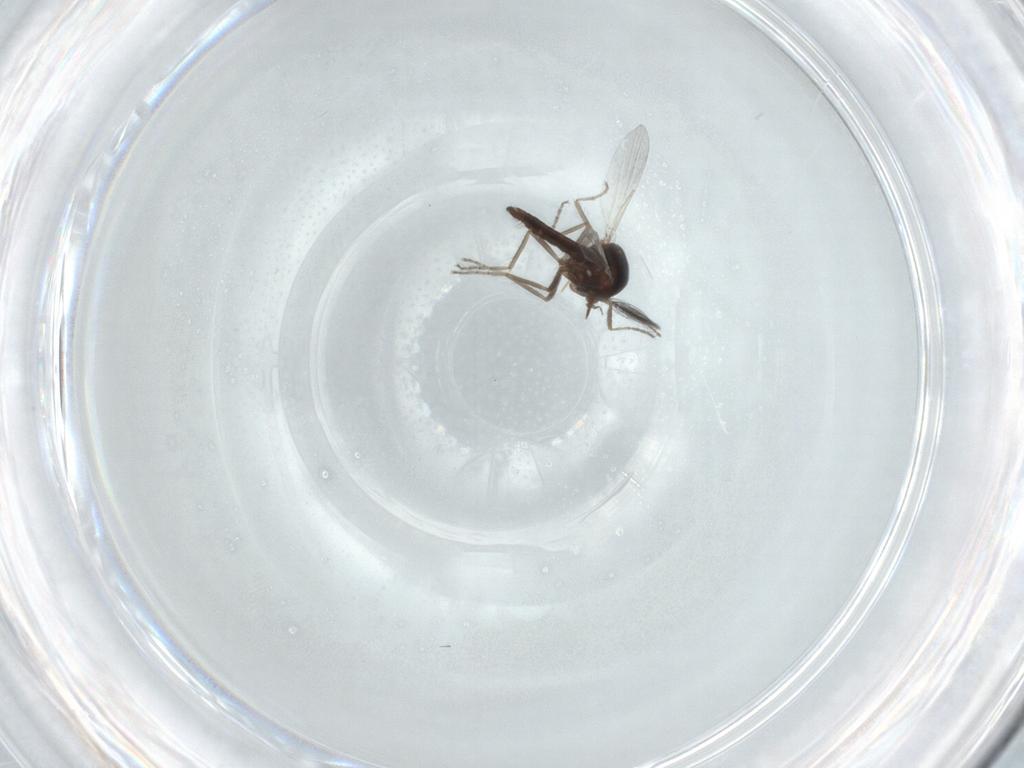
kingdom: Animalia
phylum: Arthropoda
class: Insecta
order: Diptera
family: Ceratopogonidae
